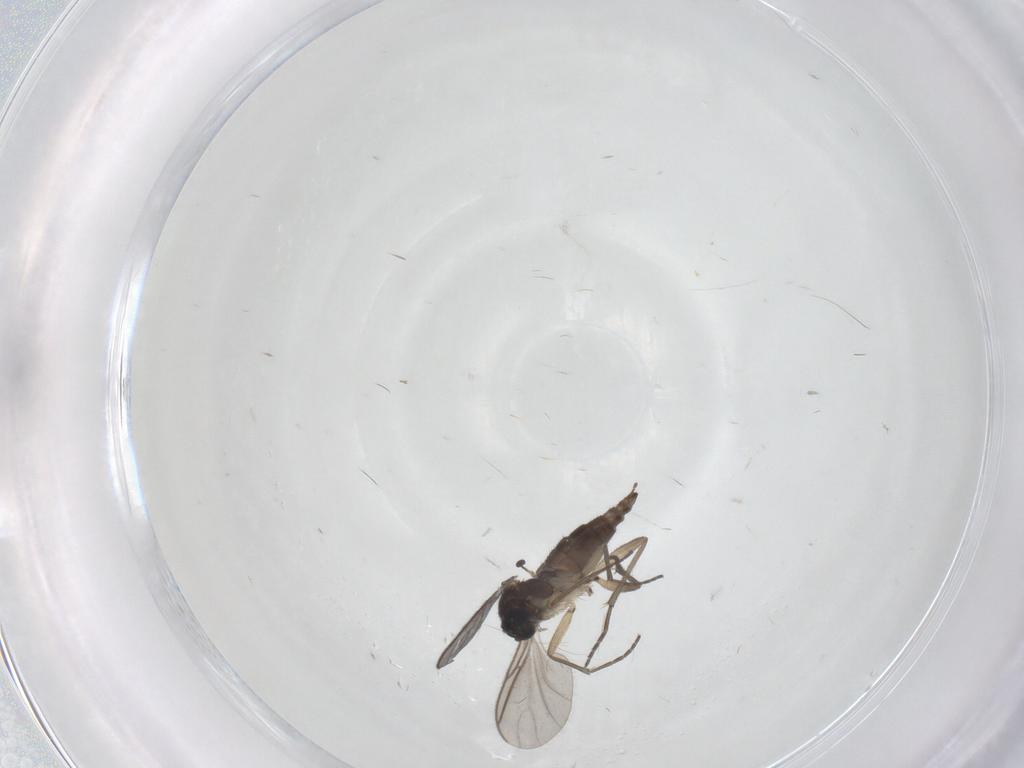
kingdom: Animalia
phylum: Arthropoda
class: Insecta
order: Diptera
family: Sciaridae
